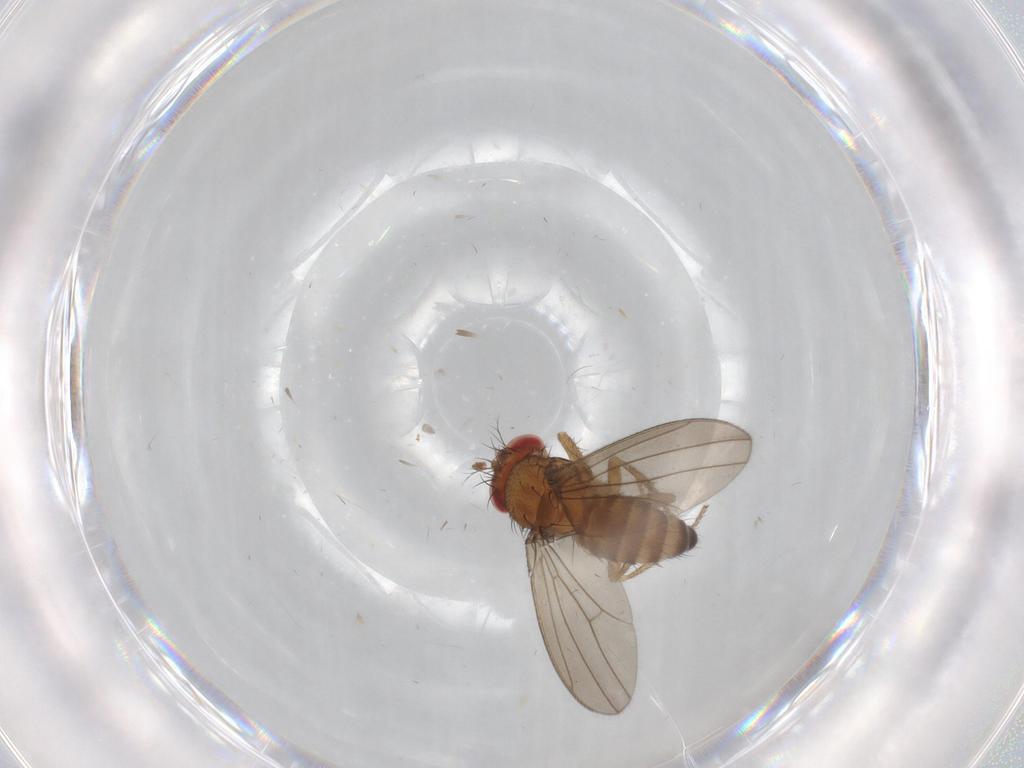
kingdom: Animalia
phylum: Arthropoda
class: Insecta
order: Diptera
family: Drosophilidae
